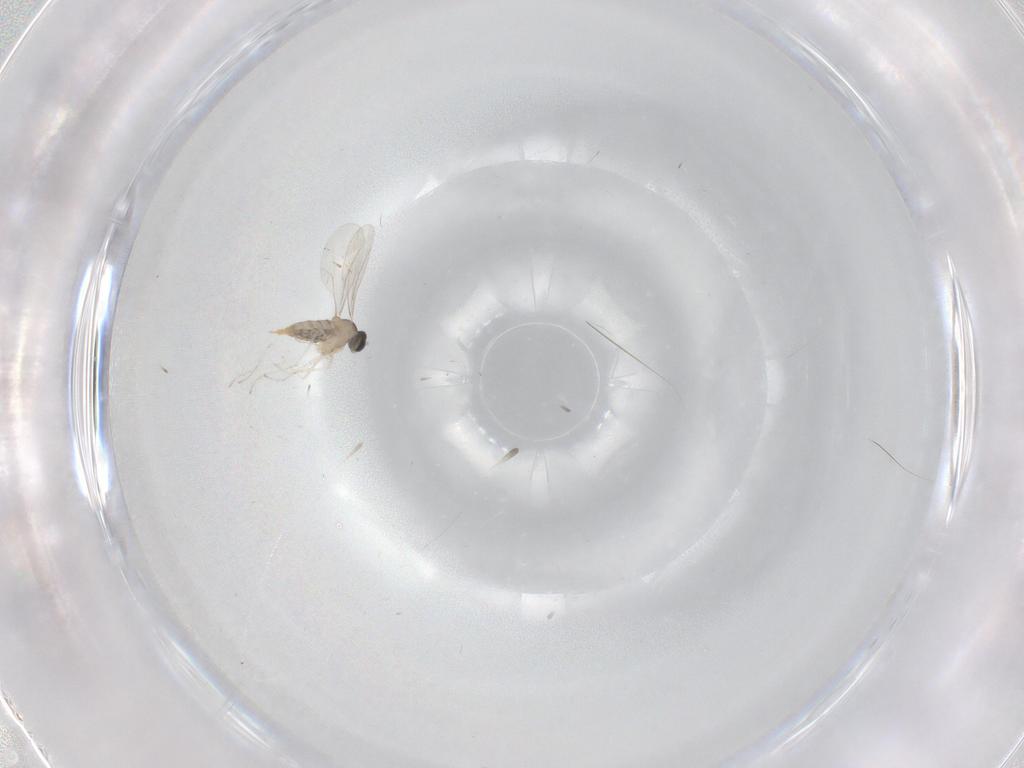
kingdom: Animalia
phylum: Arthropoda
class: Insecta
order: Diptera
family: Cecidomyiidae
